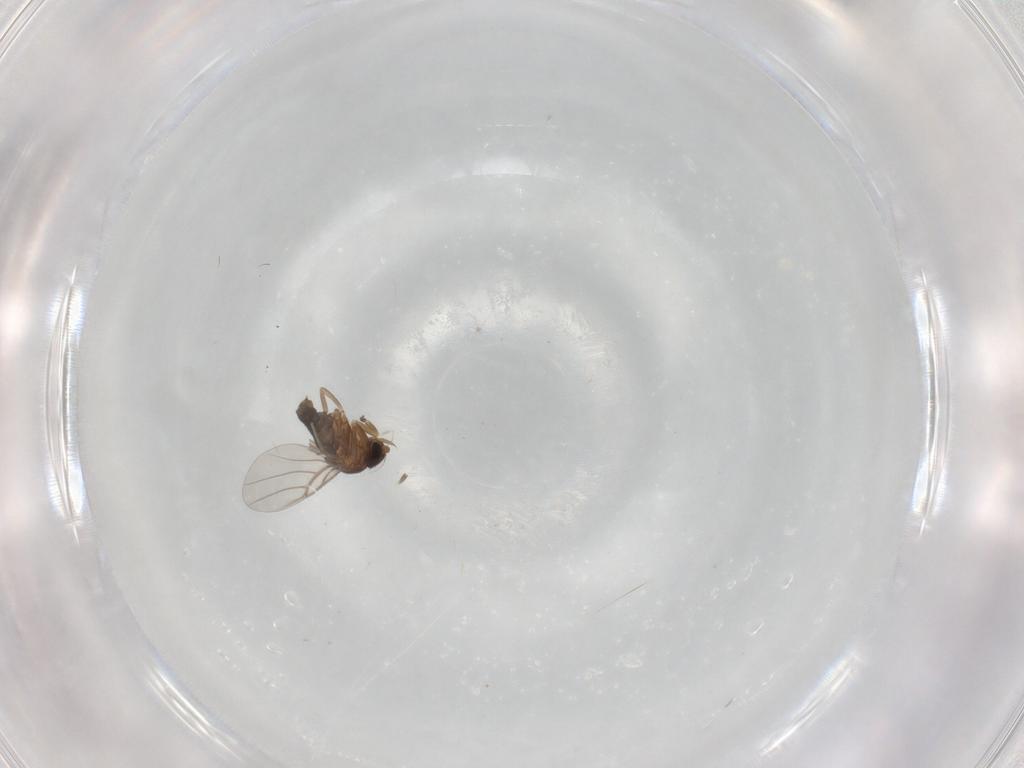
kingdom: Animalia
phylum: Arthropoda
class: Insecta
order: Diptera
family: Phoridae
